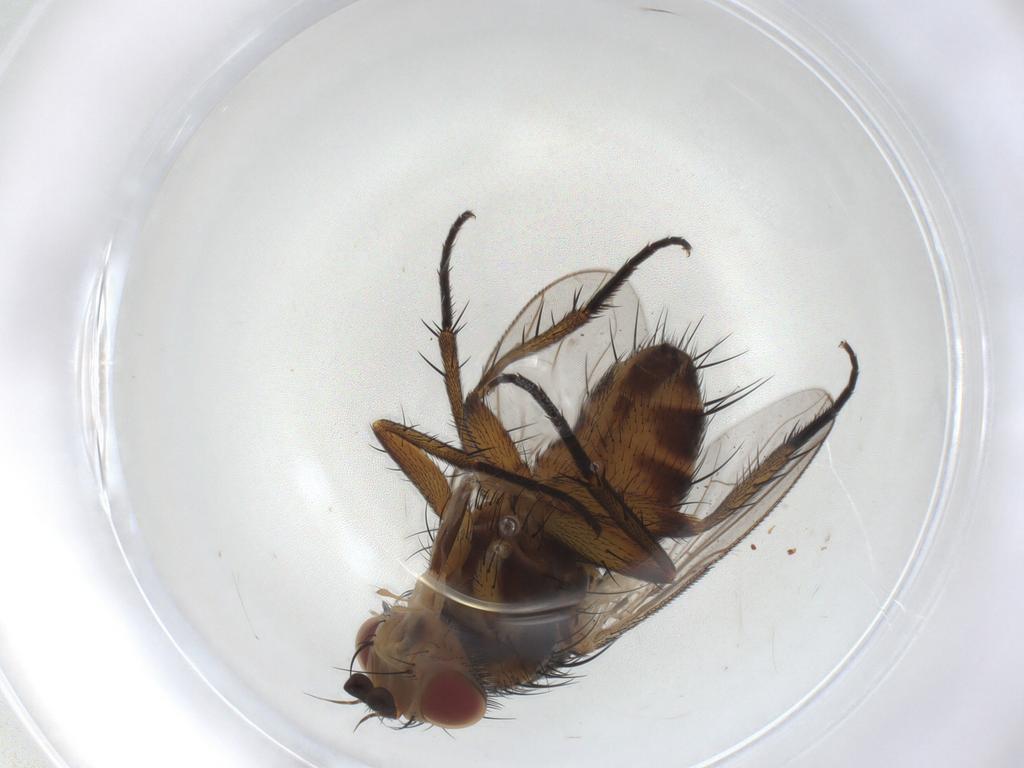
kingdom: Animalia
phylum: Arthropoda
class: Insecta
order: Diptera
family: Tachinidae
